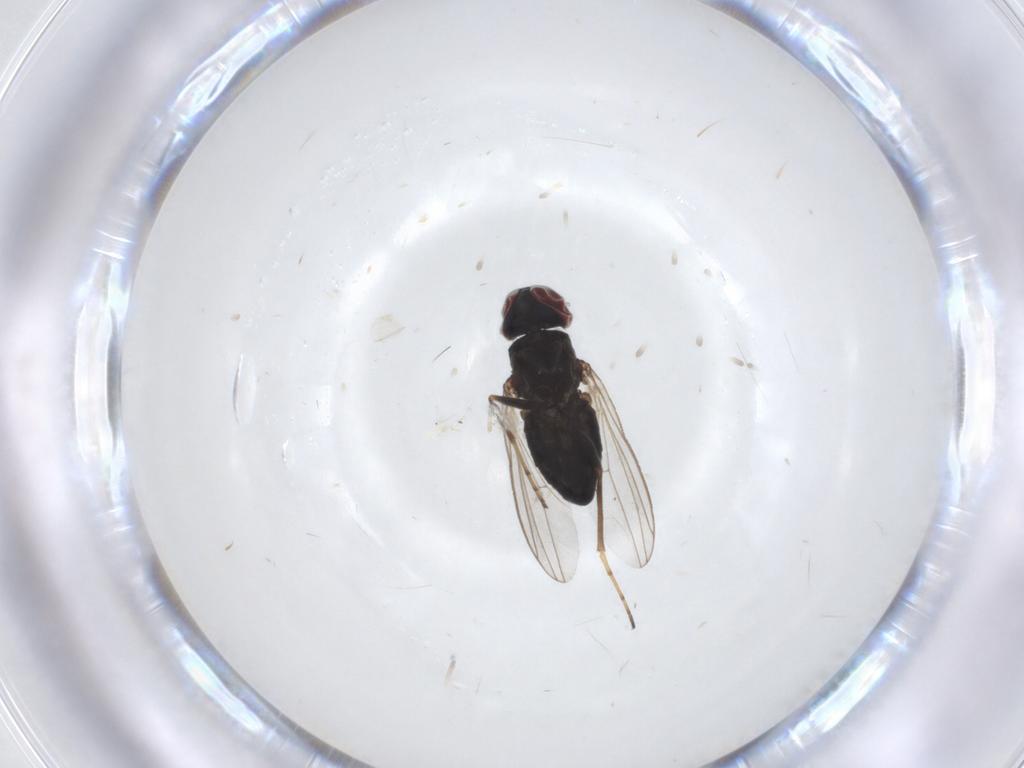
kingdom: Animalia
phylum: Arthropoda
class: Insecta
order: Diptera
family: Dolichopodidae
